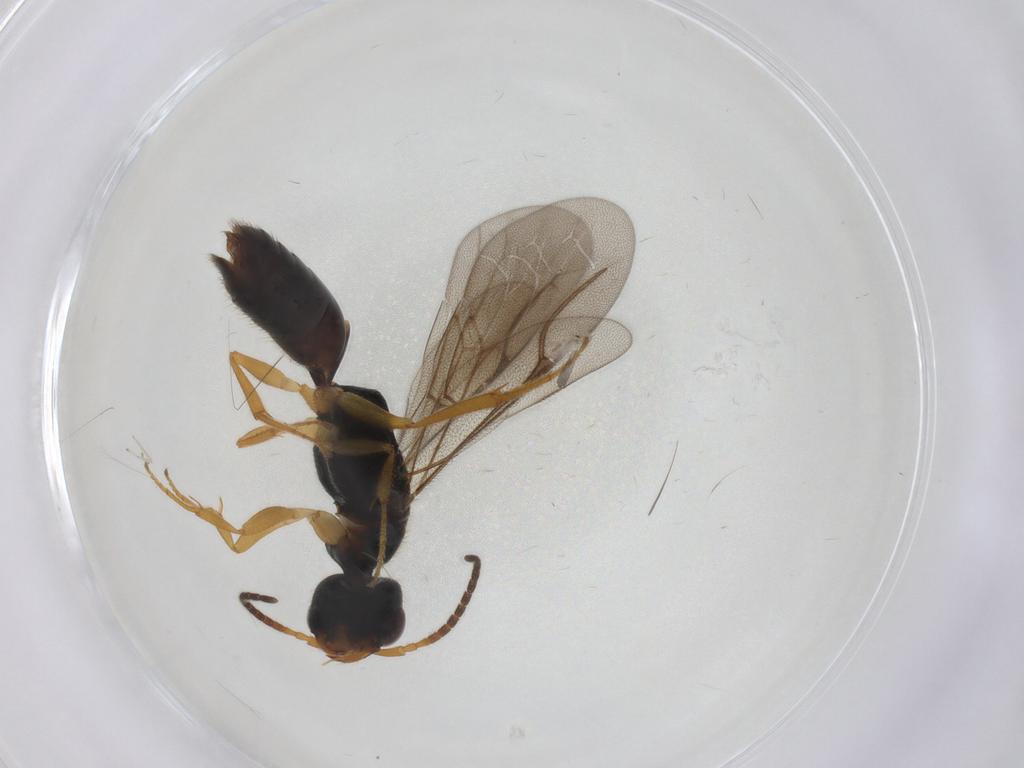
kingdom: Animalia
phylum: Arthropoda
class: Insecta
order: Hymenoptera
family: Bethylidae
